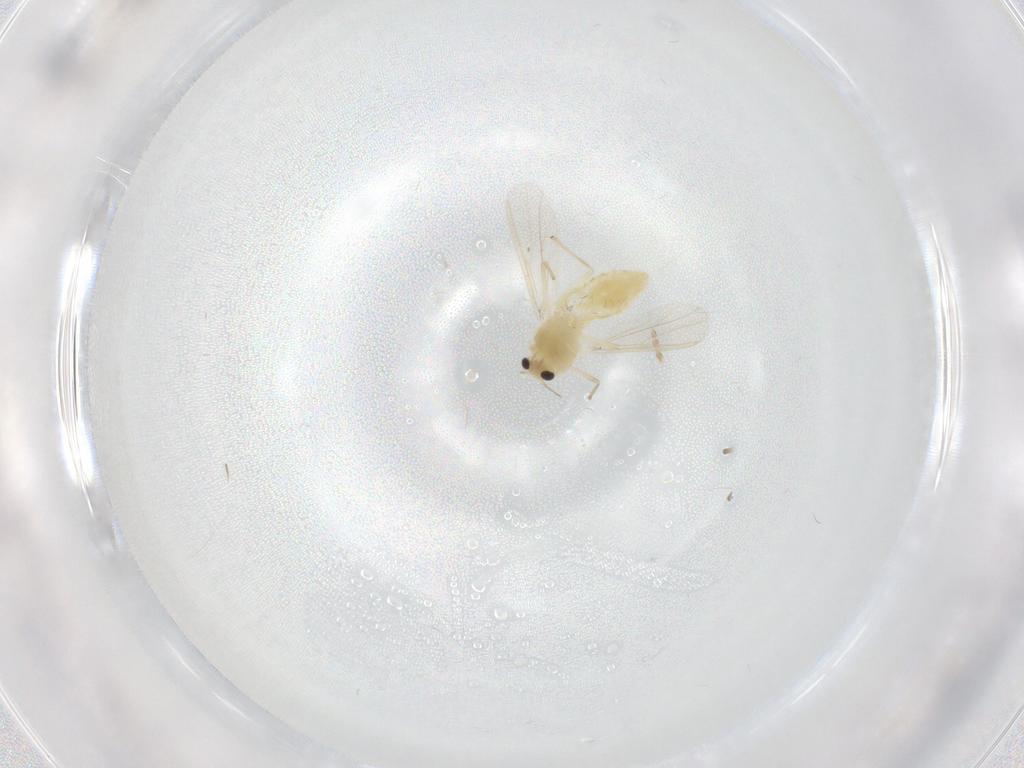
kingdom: Animalia
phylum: Arthropoda
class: Insecta
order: Diptera
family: Chironomidae
